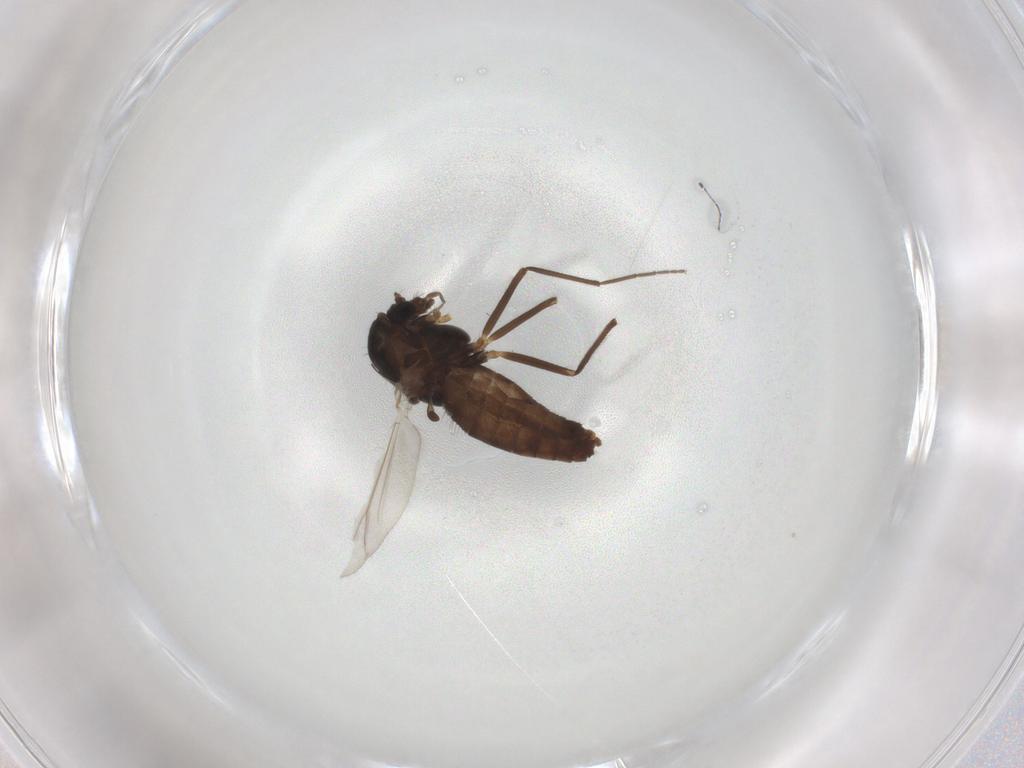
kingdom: Animalia
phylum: Arthropoda
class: Insecta
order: Diptera
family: Chironomidae
